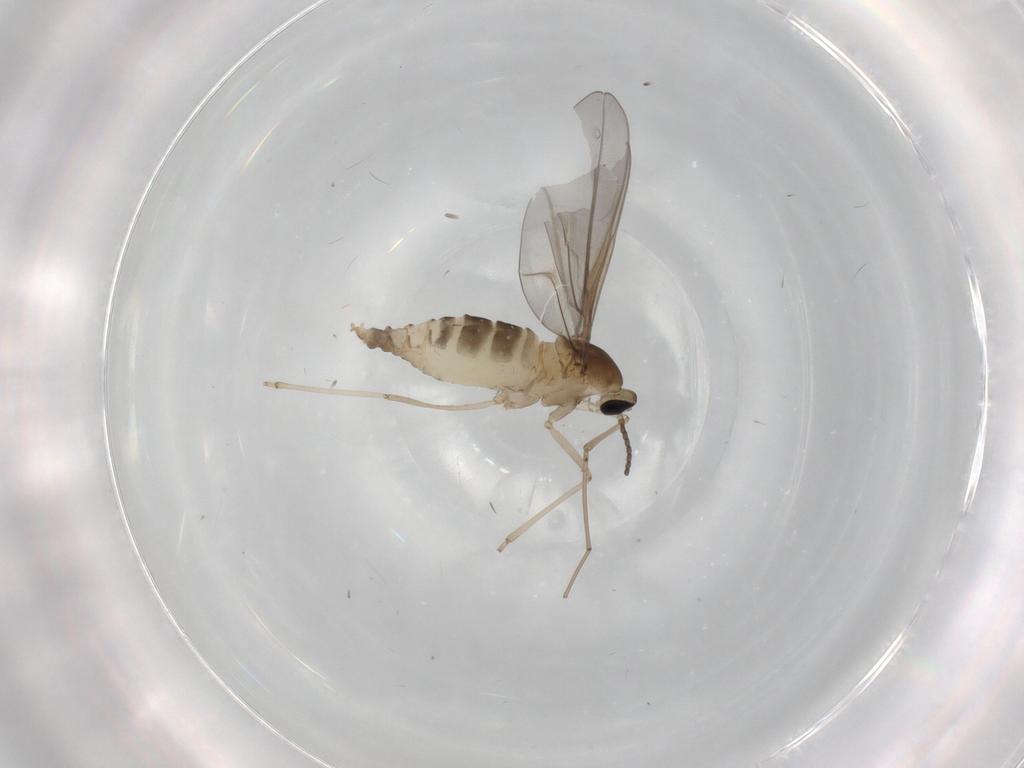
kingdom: Animalia
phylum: Arthropoda
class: Insecta
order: Diptera
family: Cecidomyiidae
